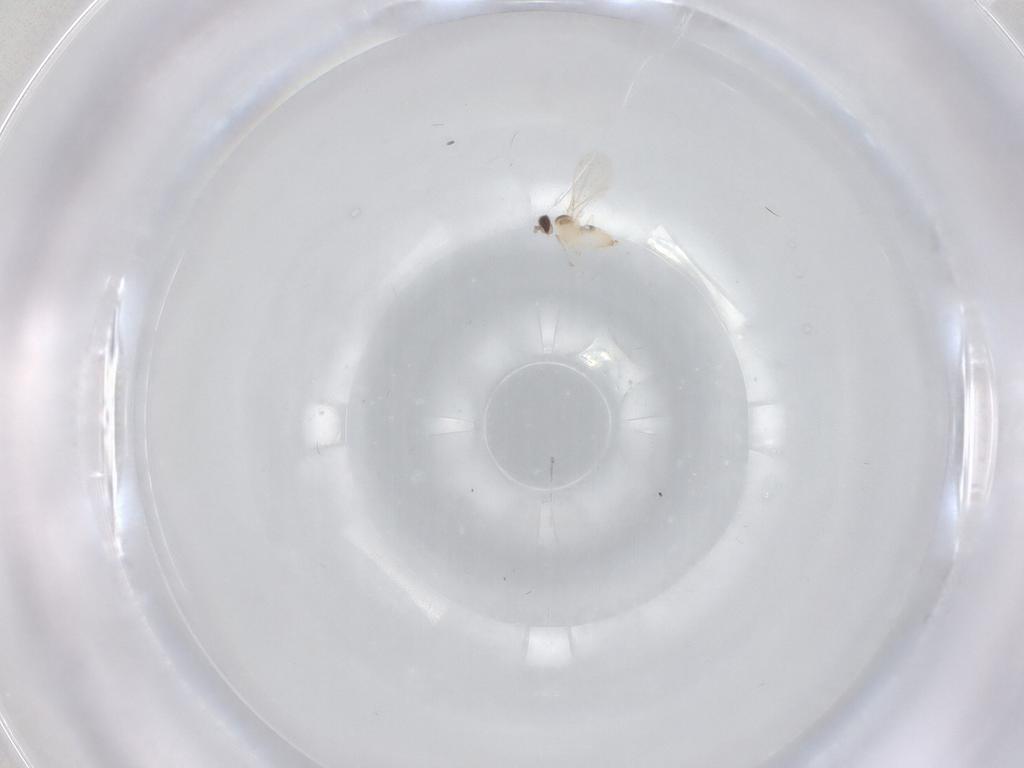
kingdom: Animalia
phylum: Arthropoda
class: Insecta
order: Diptera
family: Cecidomyiidae
